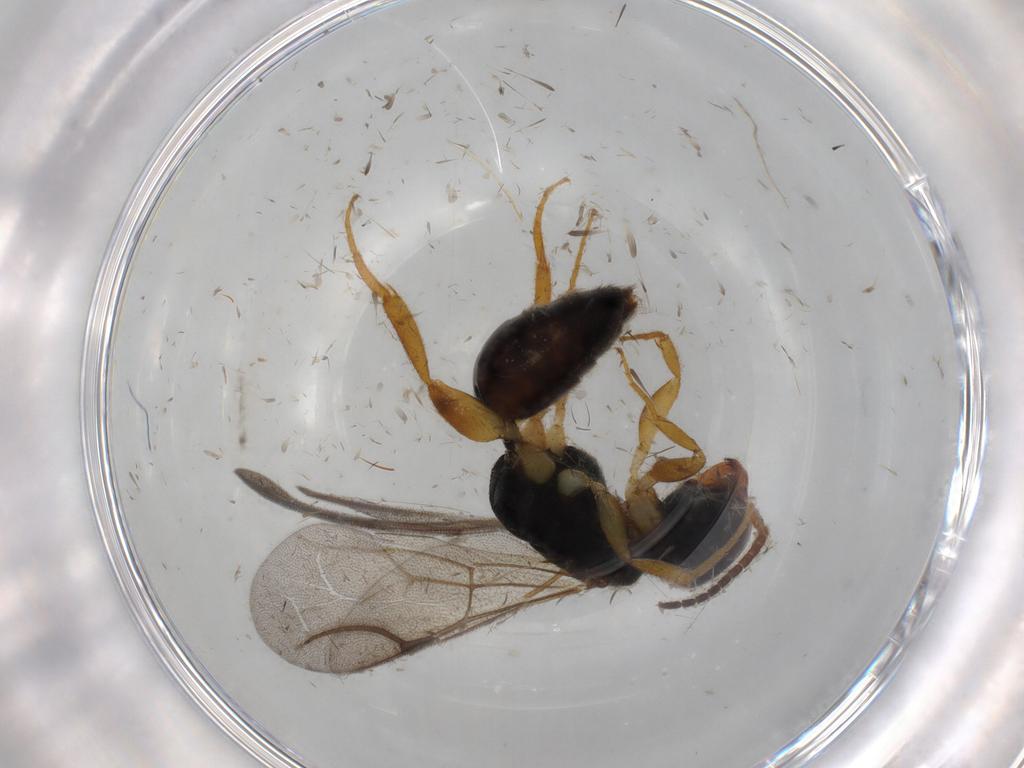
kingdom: Animalia
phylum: Arthropoda
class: Insecta
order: Hymenoptera
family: Bethylidae
